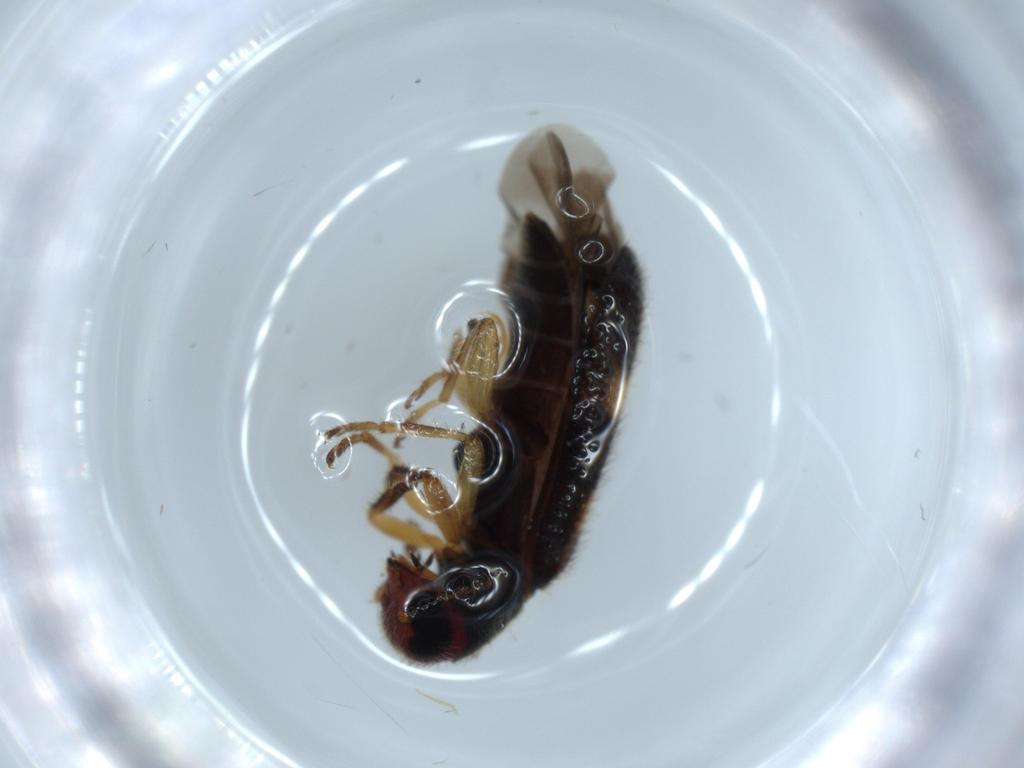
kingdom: Animalia
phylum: Arthropoda
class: Insecta
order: Coleoptera
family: Cleridae
